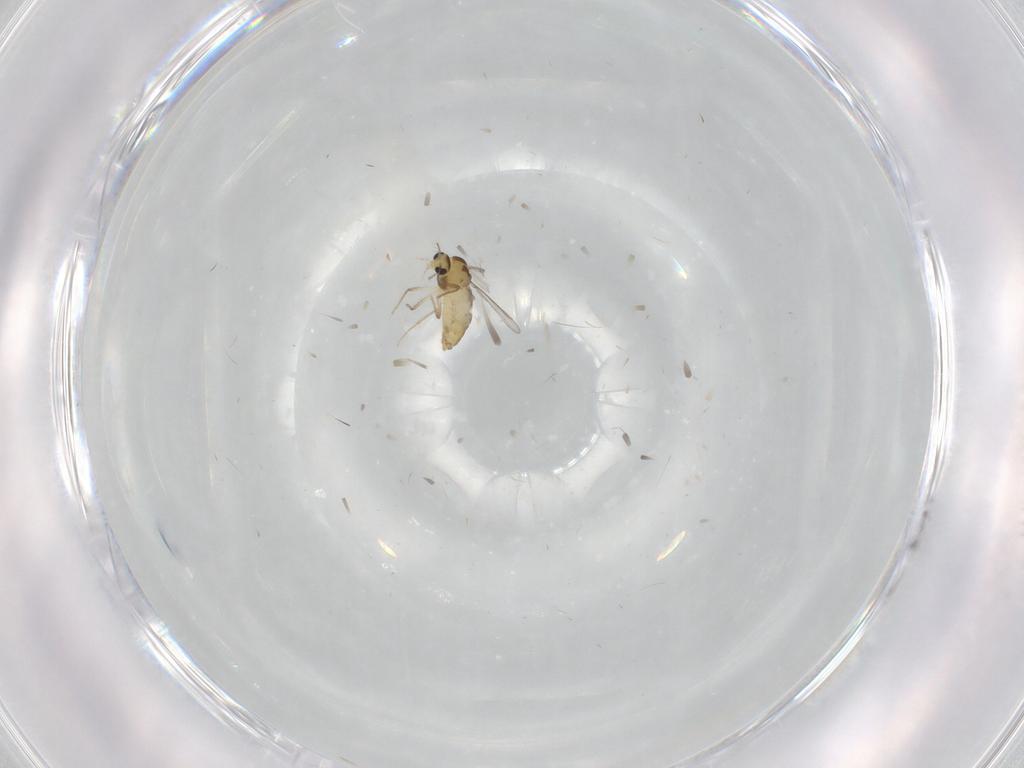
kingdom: Animalia
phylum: Arthropoda
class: Insecta
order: Diptera
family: Chironomidae
